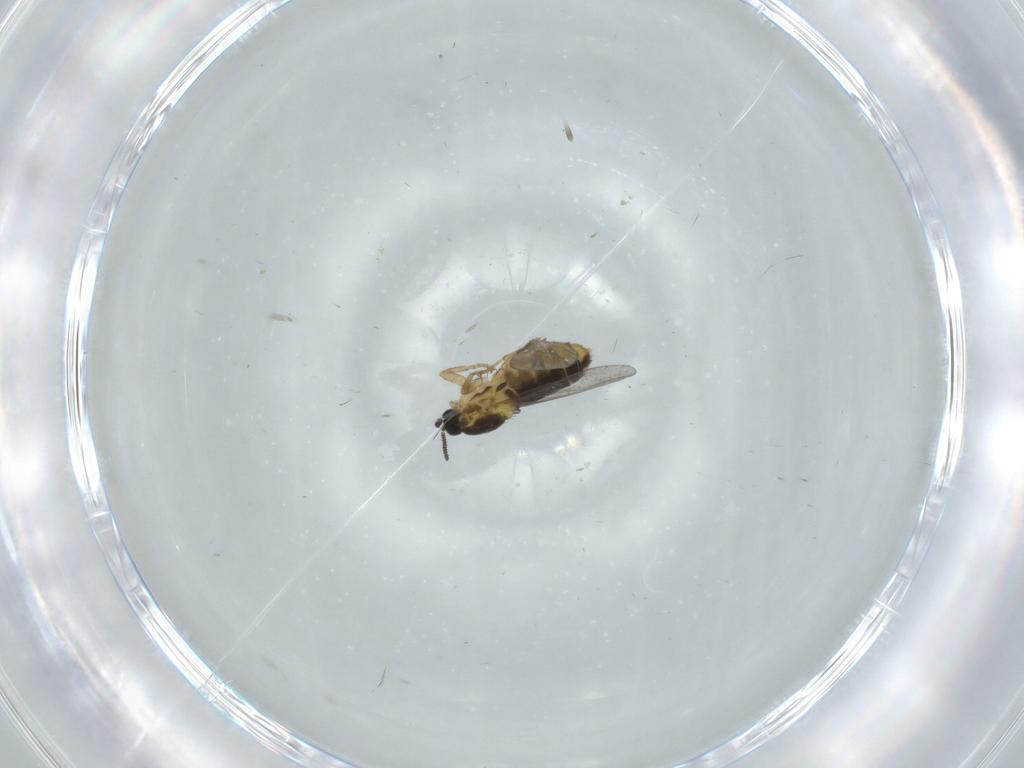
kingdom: Animalia
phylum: Arthropoda
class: Insecta
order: Diptera
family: Scatopsidae
